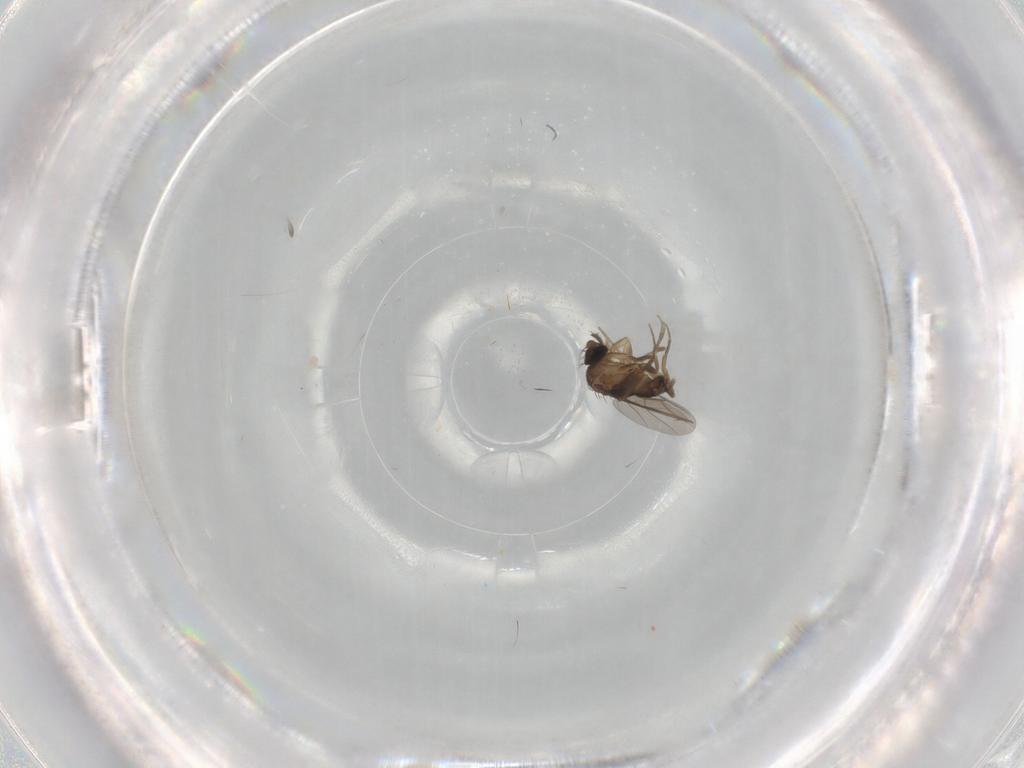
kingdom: Animalia
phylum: Arthropoda
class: Insecta
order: Diptera
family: Phoridae
